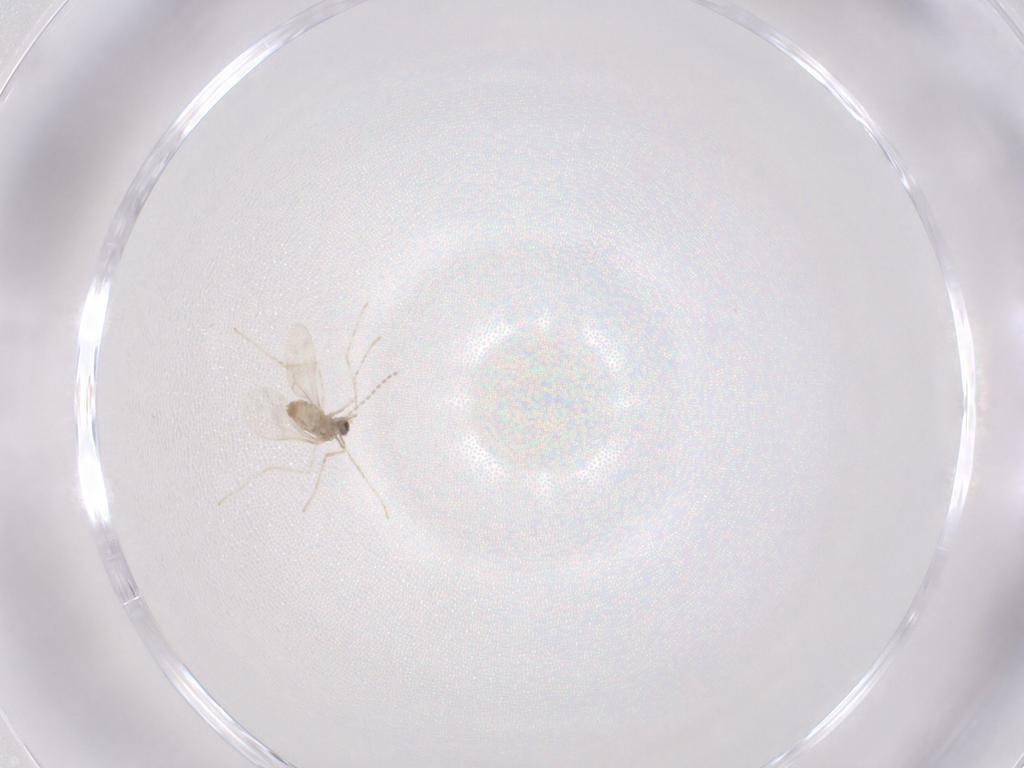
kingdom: Animalia
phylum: Arthropoda
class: Insecta
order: Diptera
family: Cecidomyiidae
